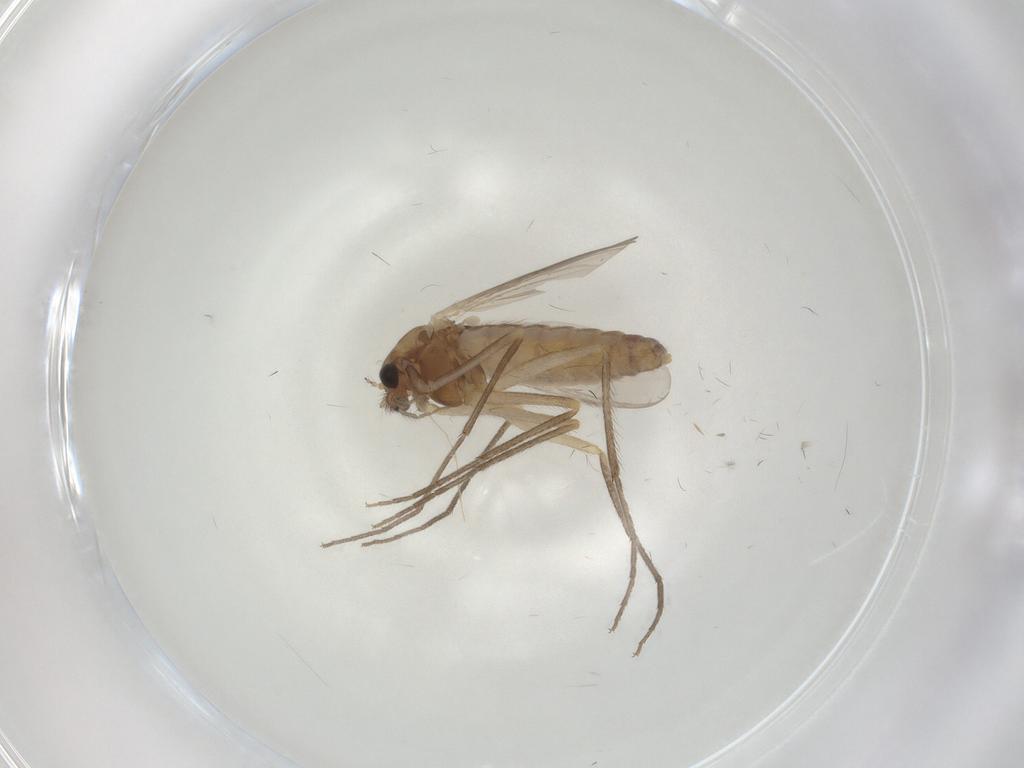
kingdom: Animalia
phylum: Arthropoda
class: Insecta
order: Diptera
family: Chironomidae
